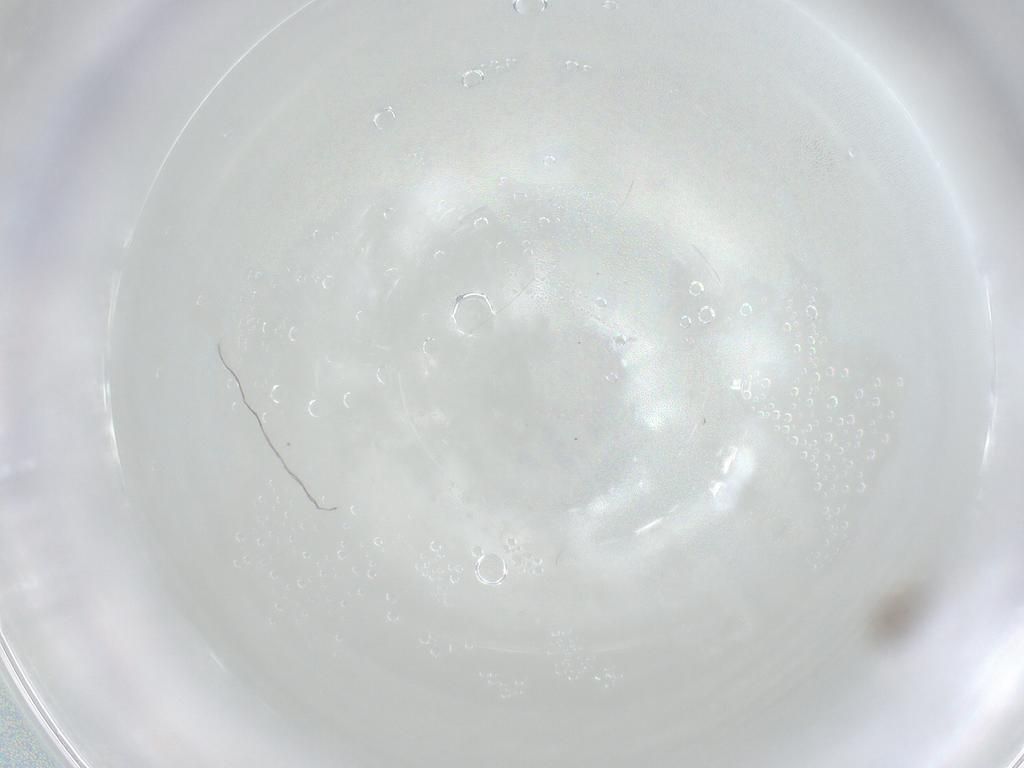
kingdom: Animalia
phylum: Arthropoda
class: Insecta
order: Diptera
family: Cecidomyiidae
